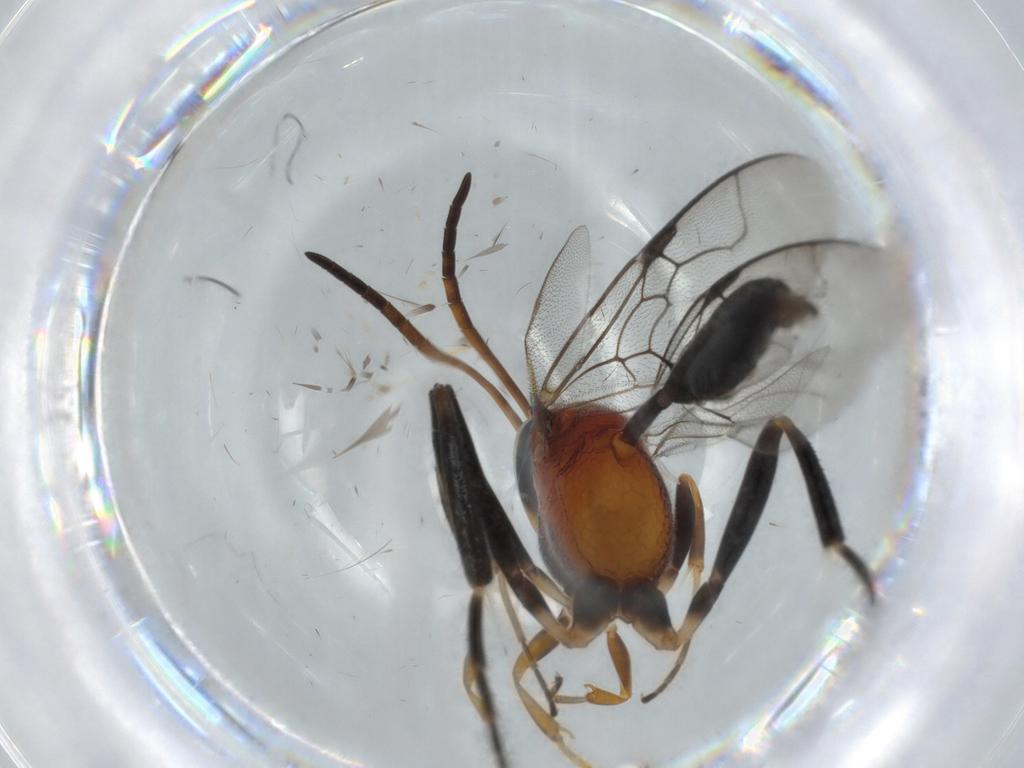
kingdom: Animalia
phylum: Arthropoda
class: Insecta
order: Hymenoptera
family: Evaniidae
